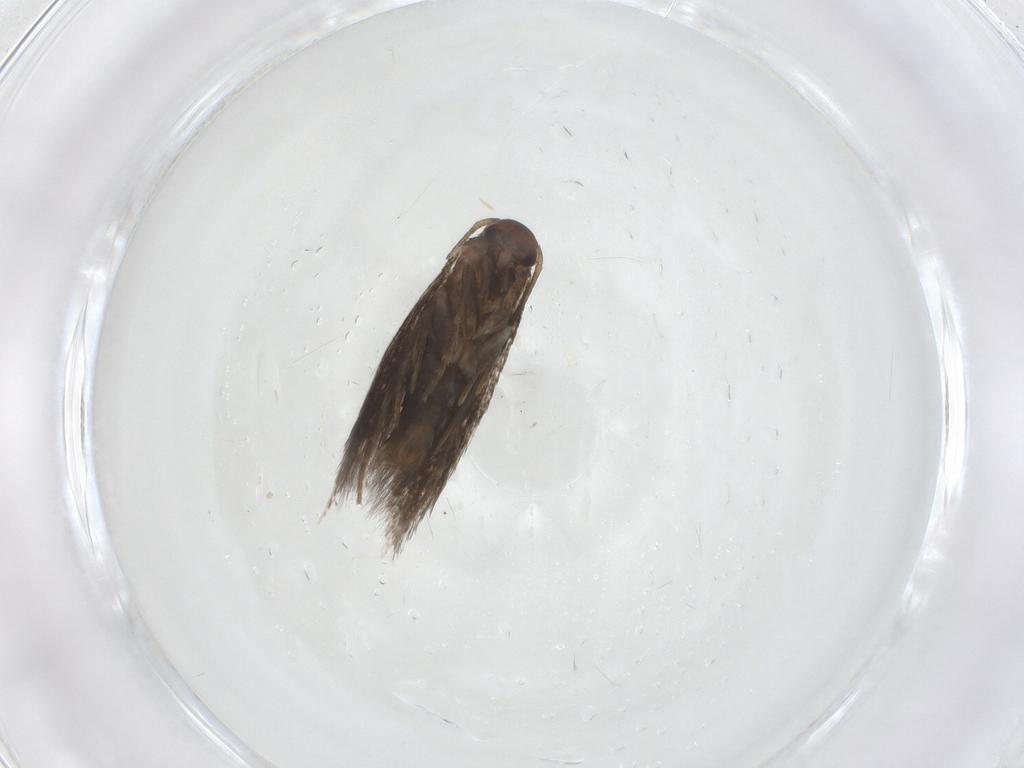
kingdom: Animalia
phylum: Arthropoda
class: Insecta
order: Lepidoptera
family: Elachistidae
